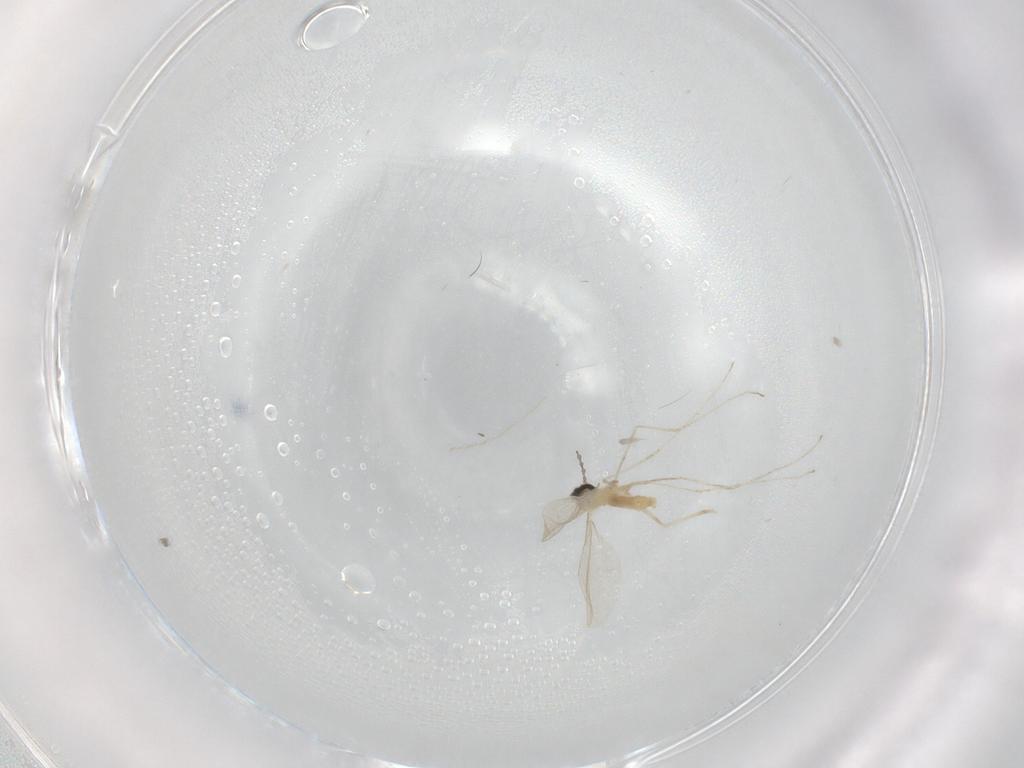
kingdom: Animalia
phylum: Arthropoda
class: Insecta
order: Diptera
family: Cecidomyiidae
